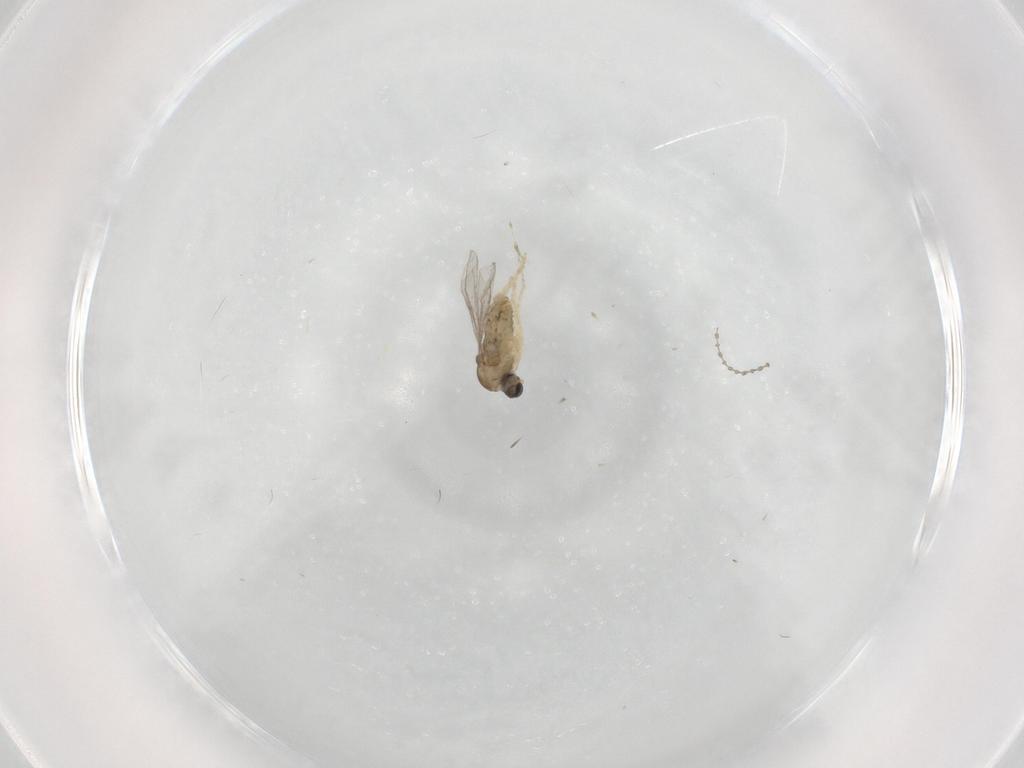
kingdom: Animalia
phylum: Arthropoda
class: Insecta
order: Diptera
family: Cecidomyiidae
